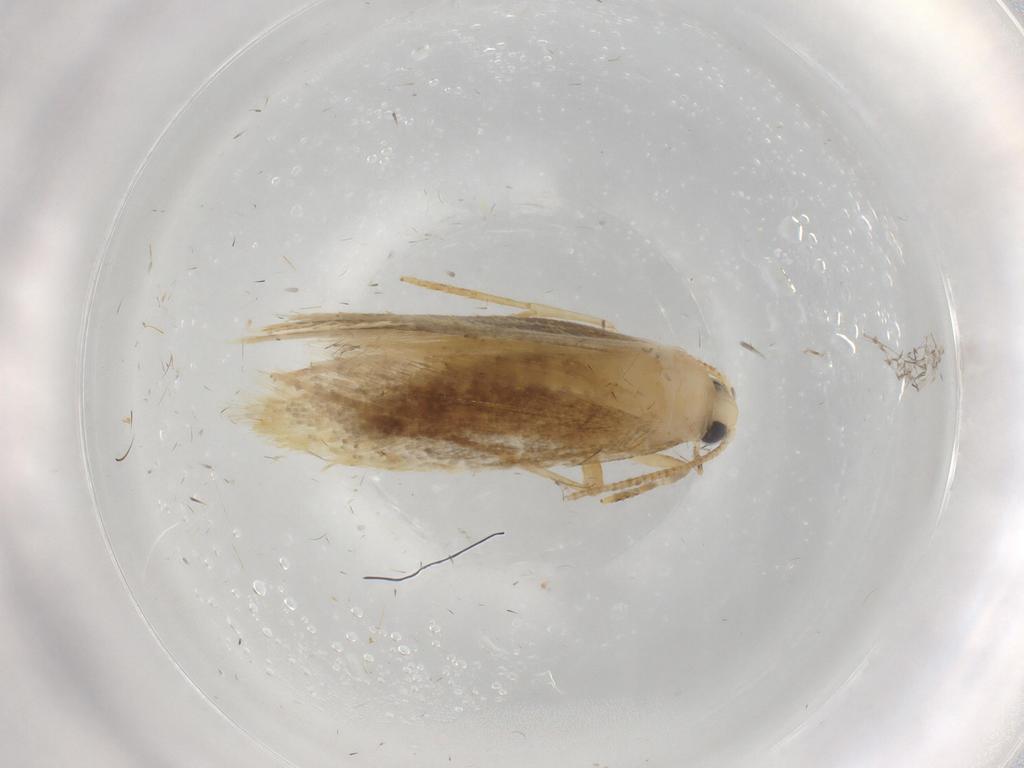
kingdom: Animalia
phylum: Arthropoda
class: Insecta
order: Lepidoptera
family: Tineidae
